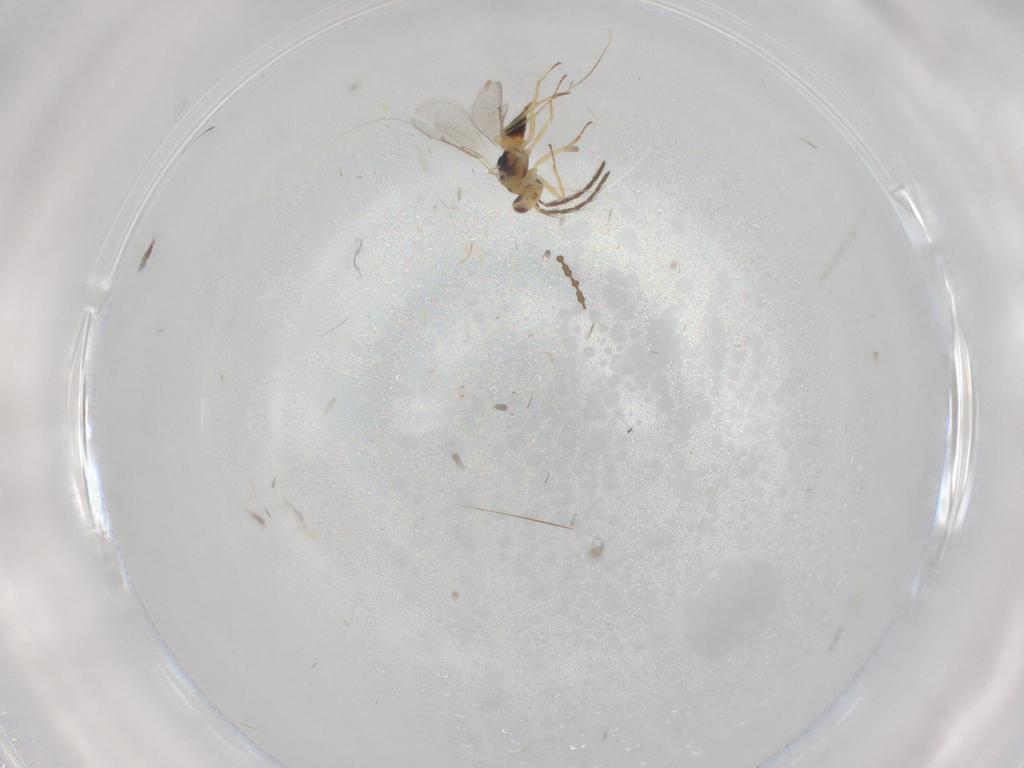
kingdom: Animalia
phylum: Arthropoda
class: Insecta
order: Hymenoptera
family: Eulophidae
